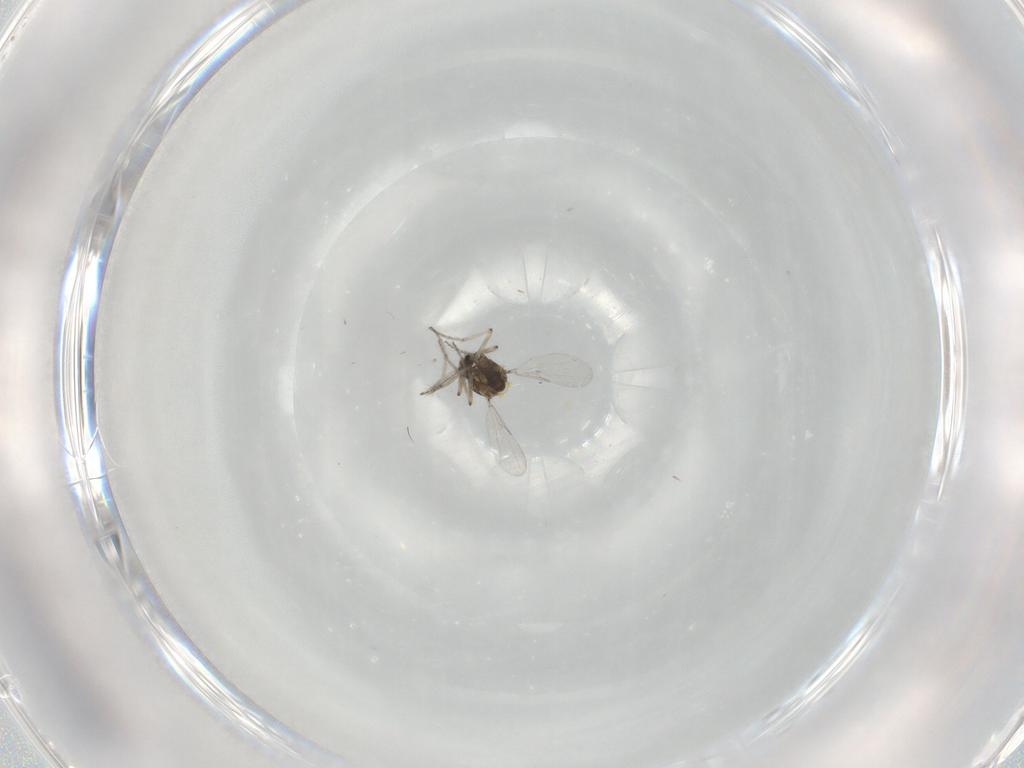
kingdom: Animalia
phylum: Arthropoda
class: Insecta
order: Diptera
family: Ceratopogonidae
